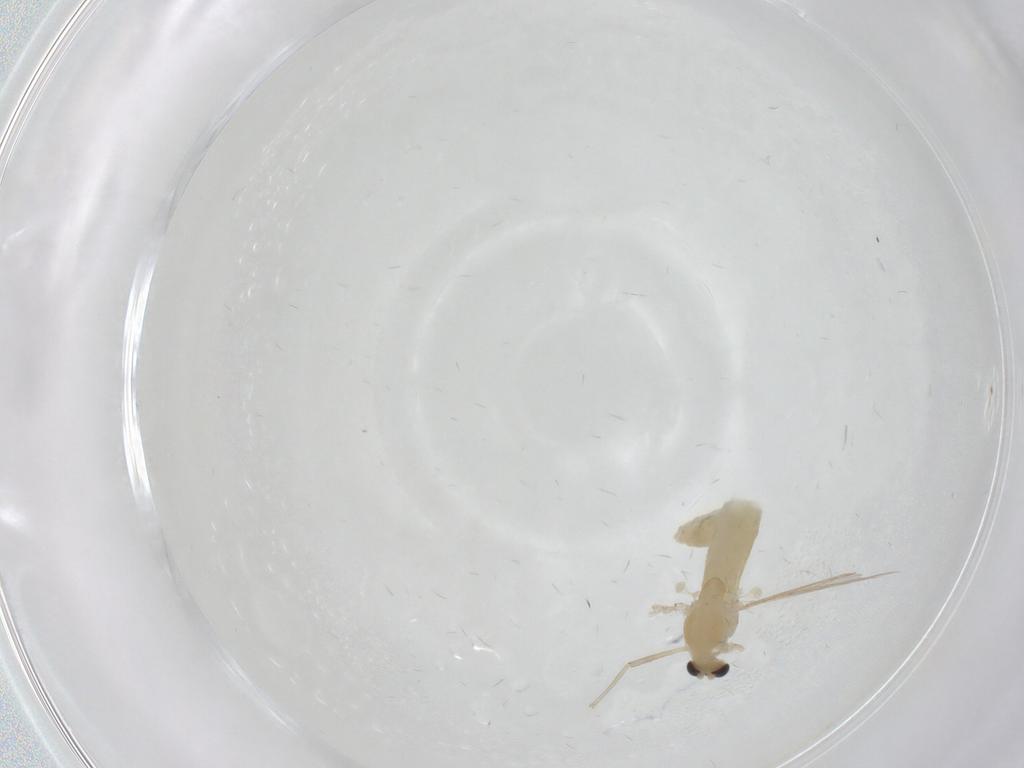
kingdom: Animalia
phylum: Arthropoda
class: Insecta
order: Diptera
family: Chironomidae
